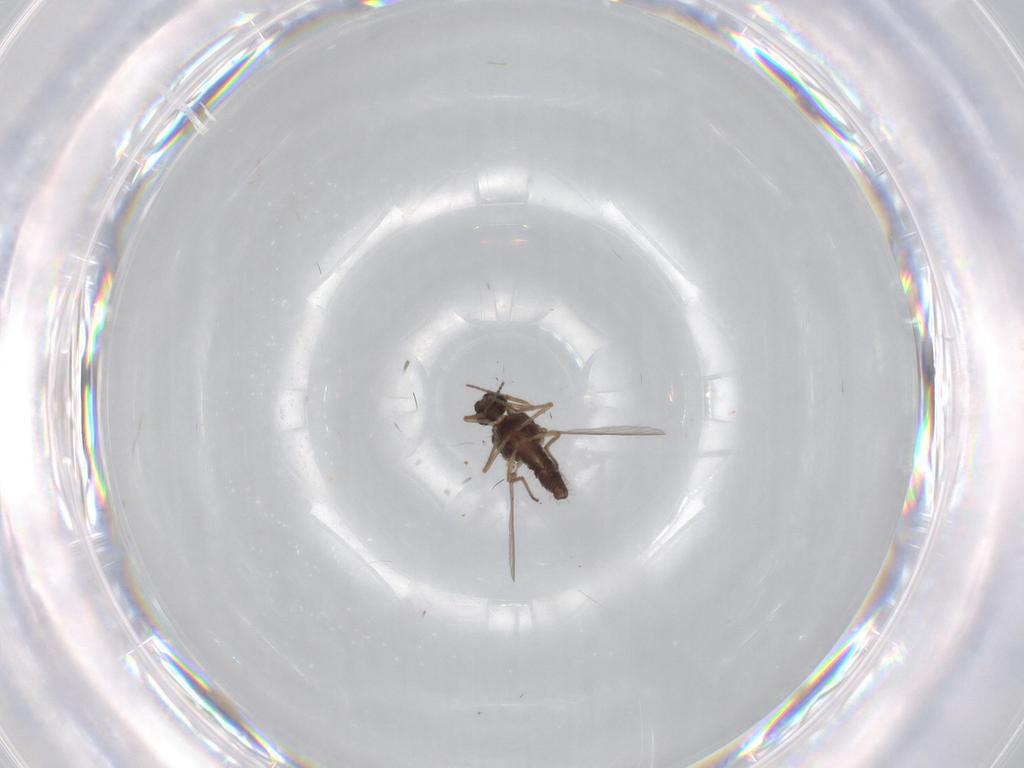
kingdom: Animalia
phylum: Arthropoda
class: Insecta
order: Diptera
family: Ceratopogonidae
